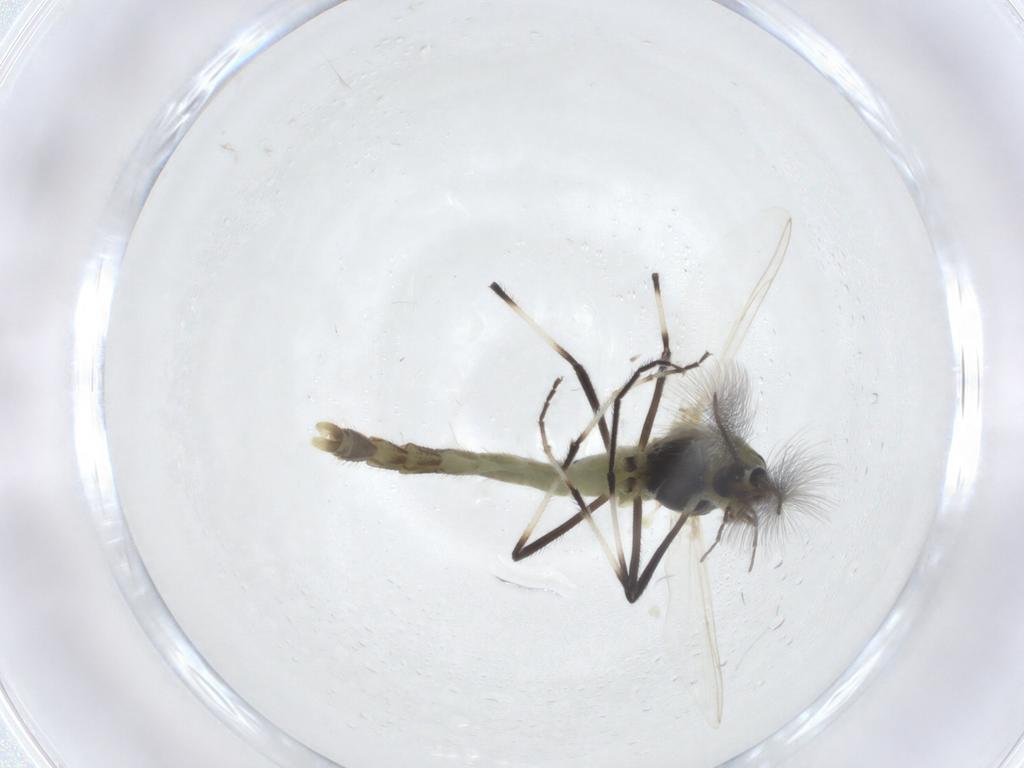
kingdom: Animalia
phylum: Arthropoda
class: Insecta
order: Diptera
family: Chironomidae
